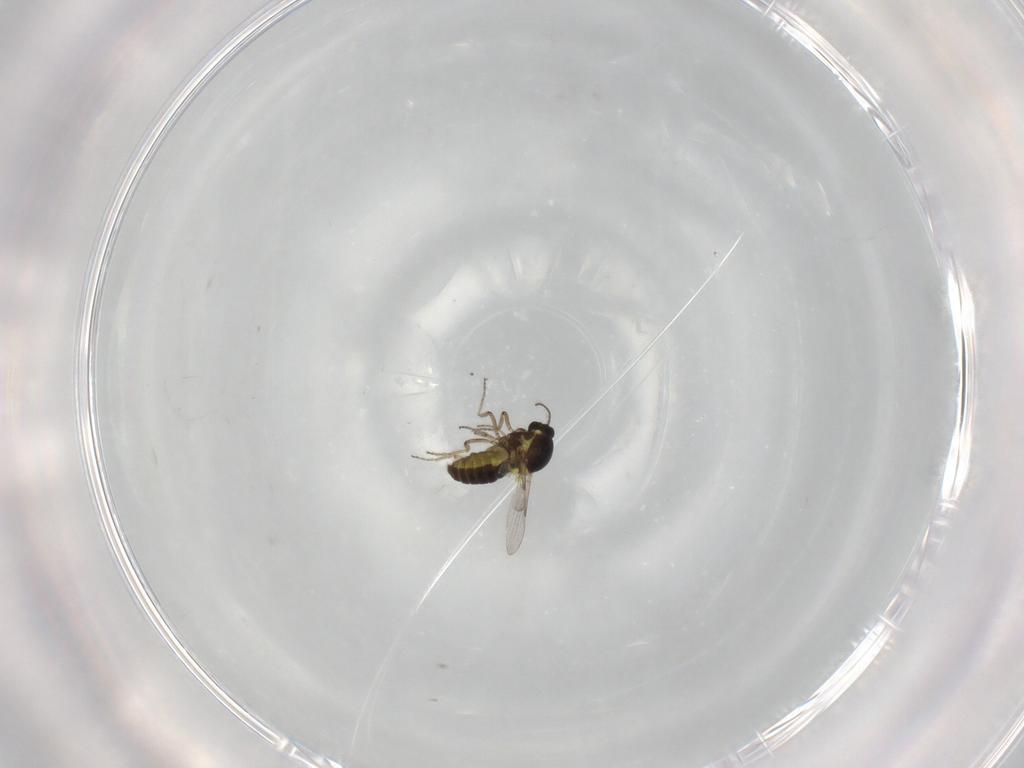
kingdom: Animalia
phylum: Arthropoda
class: Insecta
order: Diptera
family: Ceratopogonidae
